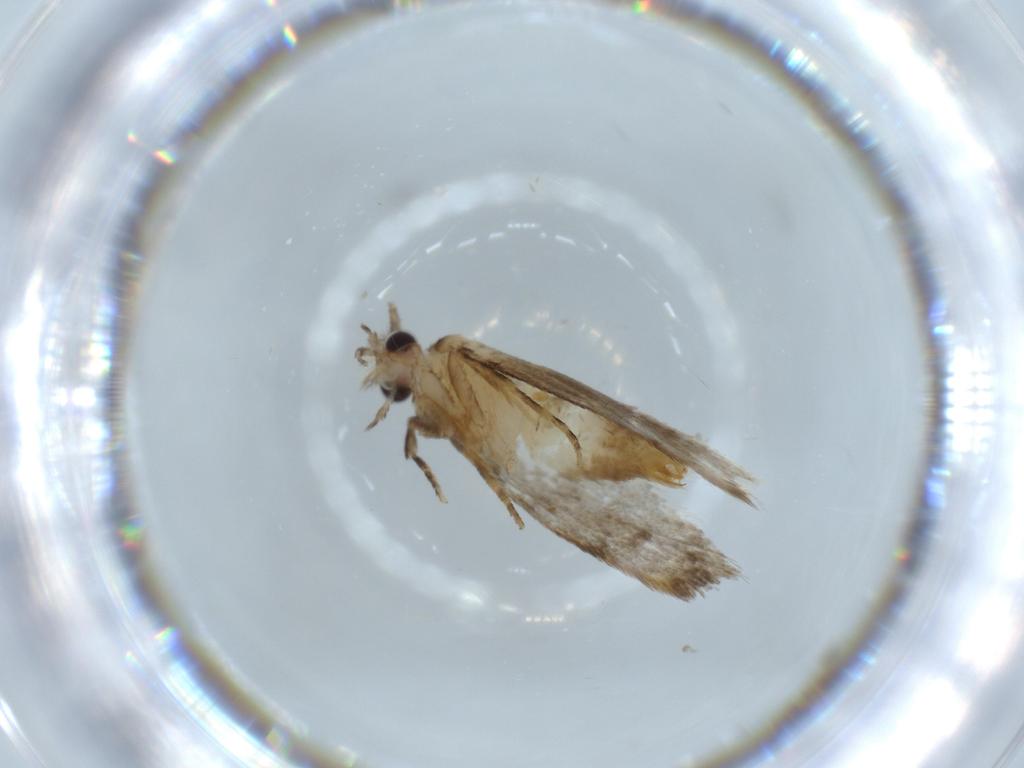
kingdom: Animalia
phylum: Arthropoda
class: Insecta
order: Lepidoptera
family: Tineidae
